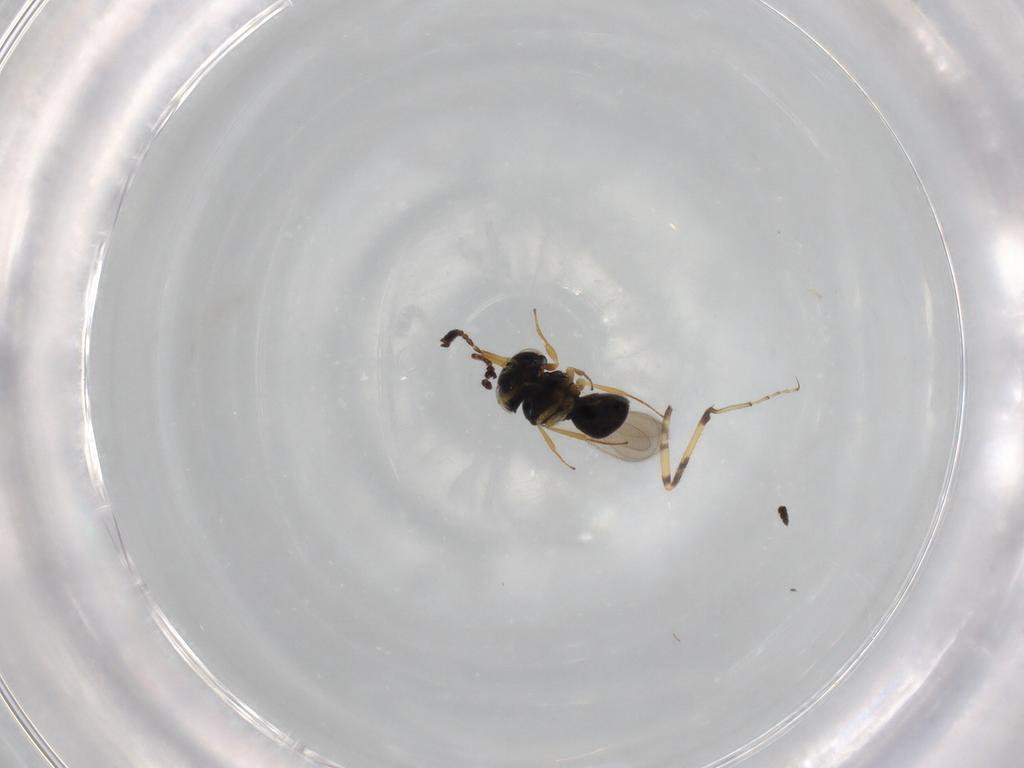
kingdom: Animalia
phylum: Arthropoda
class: Insecta
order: Hymenoptera
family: Scelionidae
